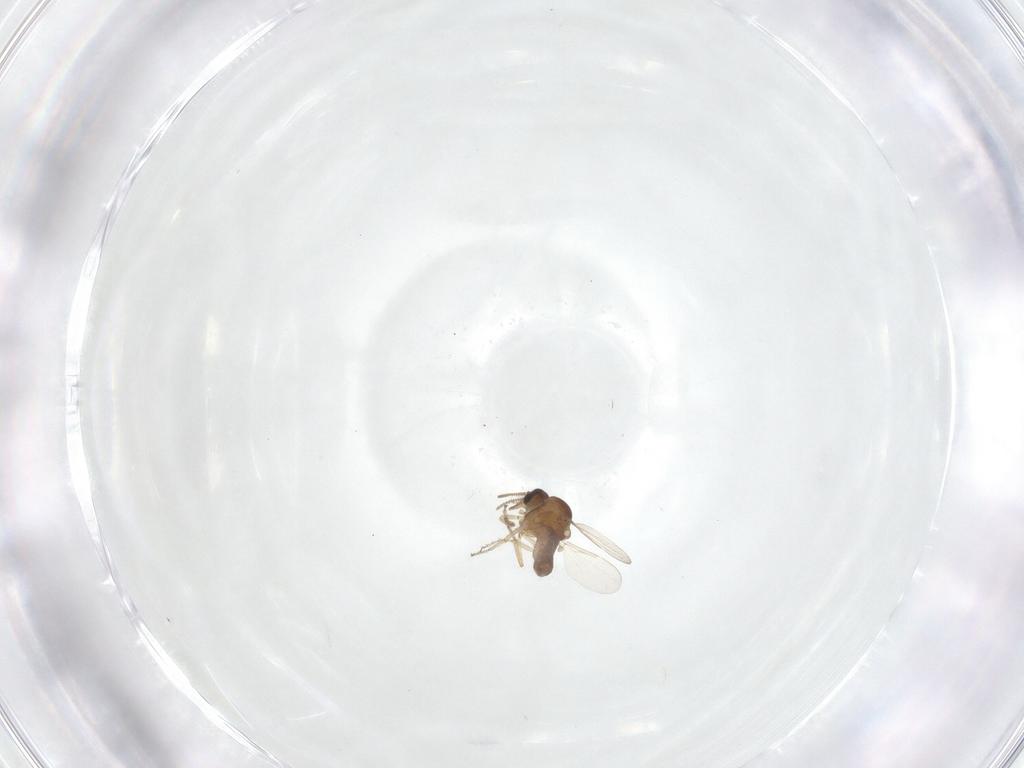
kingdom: Animalia
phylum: Arthropoda
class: Insecta
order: Diptera
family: Ceratopogonidae
